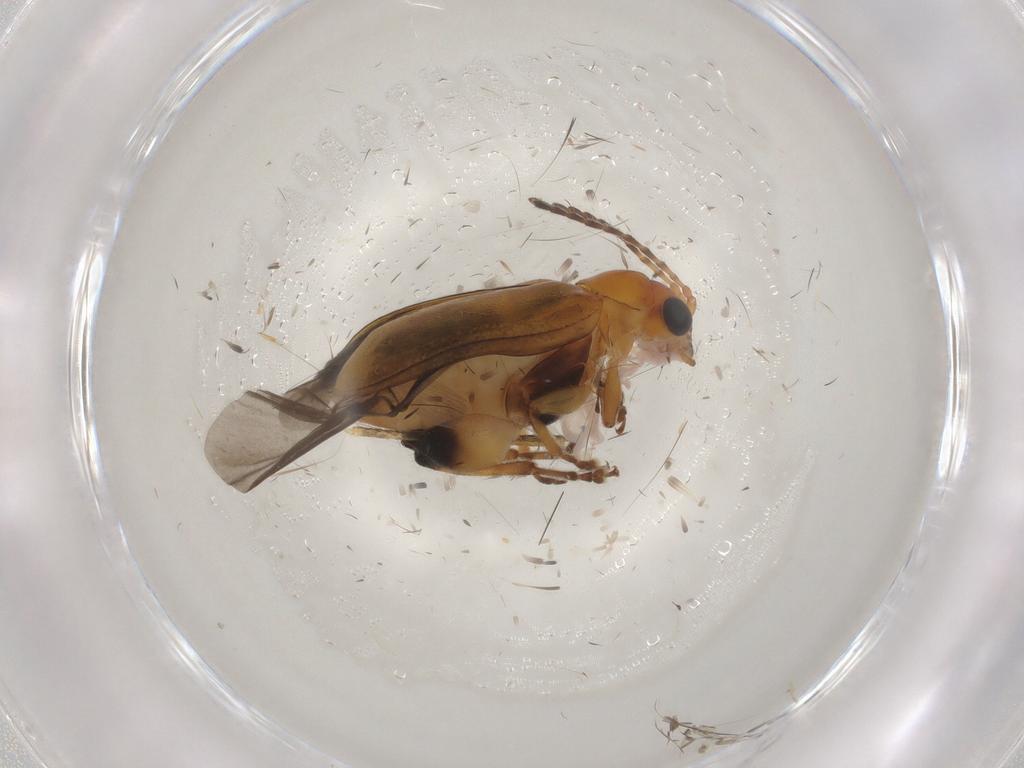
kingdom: Animalia
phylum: Arthropoda
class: Insecta
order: Coleoptera
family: Chrysomelidae
